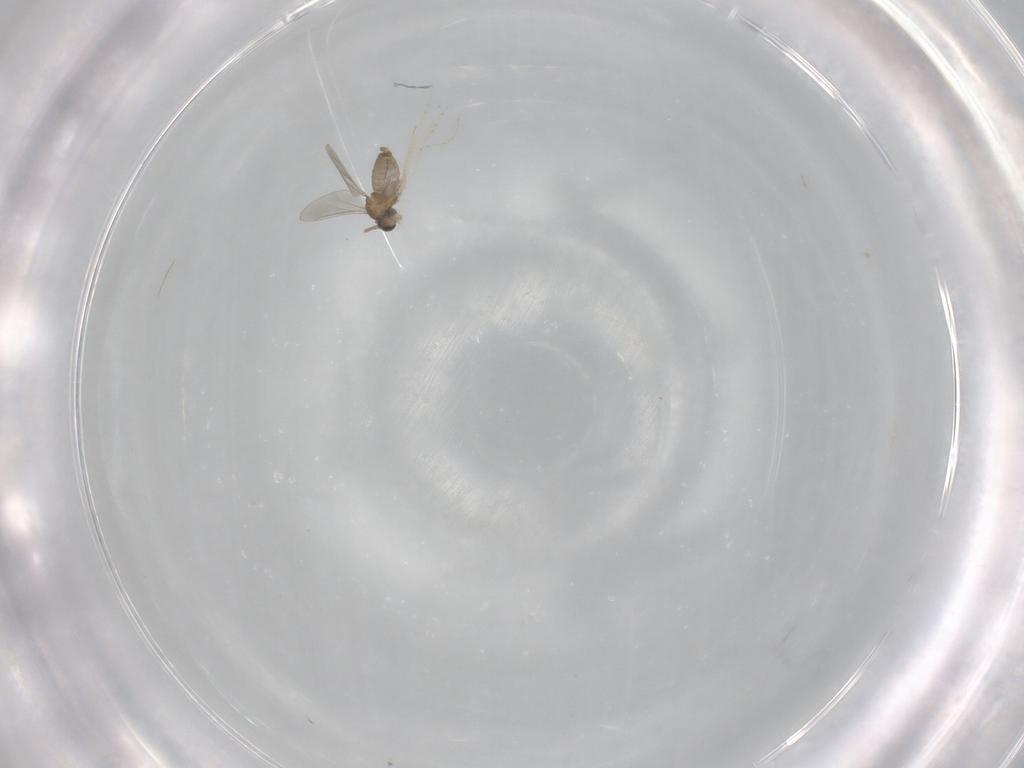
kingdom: Animalia
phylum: Arthropoda
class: Insecta
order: Diptera
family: Cecidomyiidae
